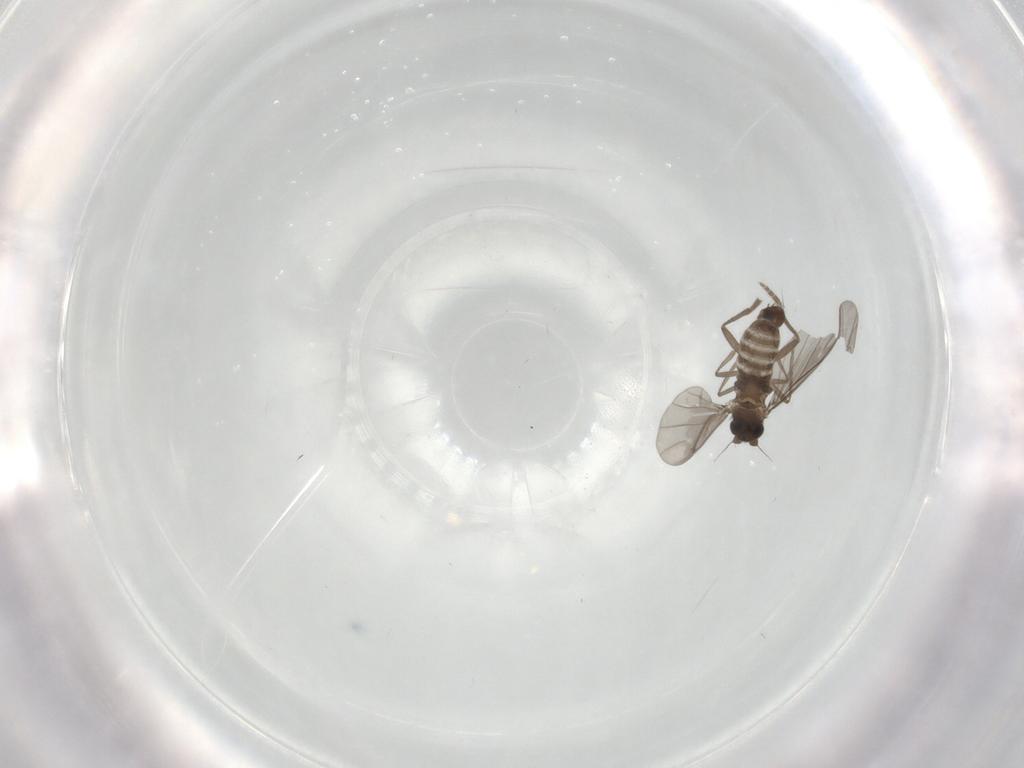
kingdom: Animalia
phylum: Arthropoda
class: Insecta
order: Diptera
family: Phoridae
